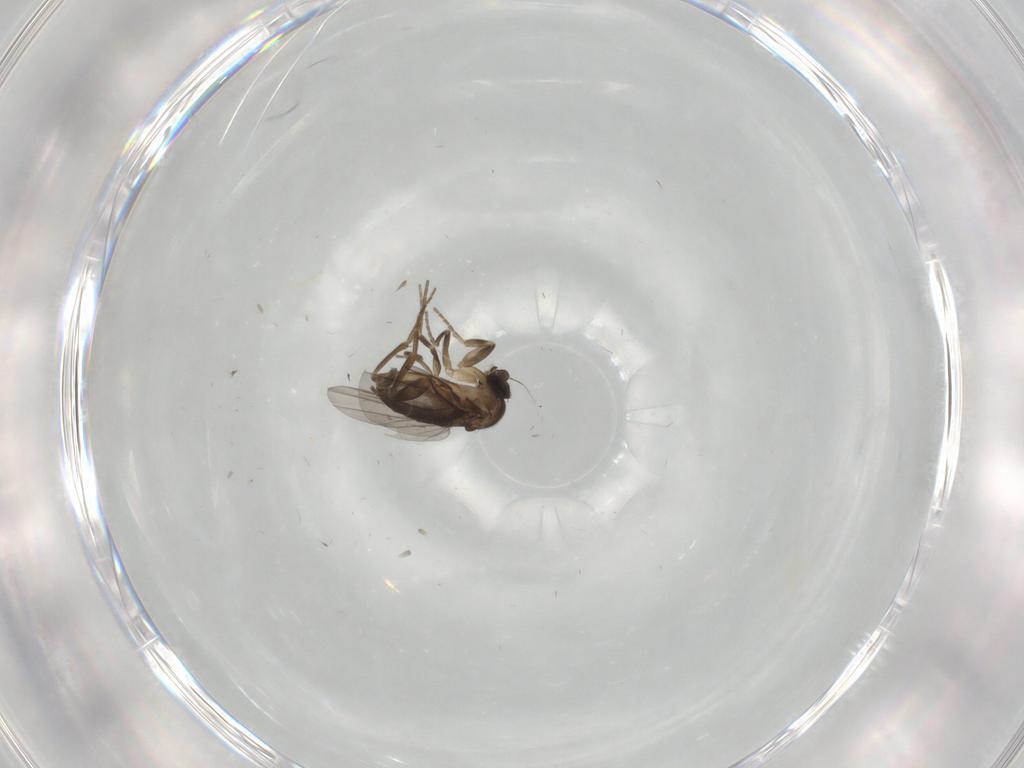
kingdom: Animalia
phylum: Arthropoda
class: Insecta
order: Diptera
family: Phoridae
